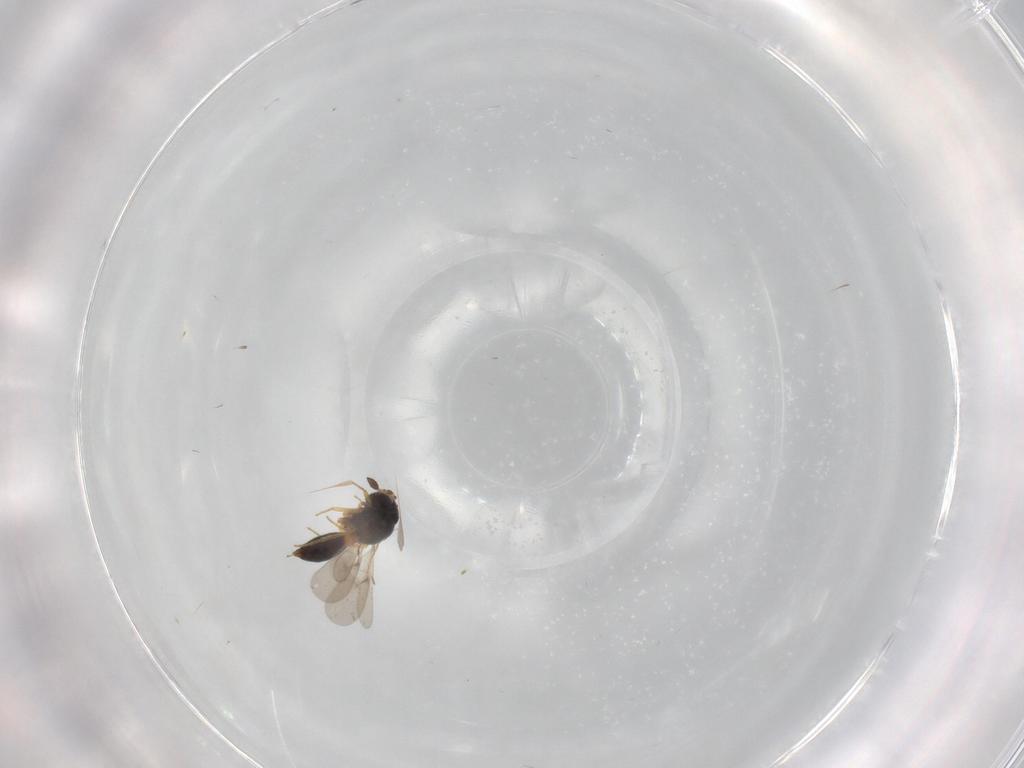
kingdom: Animalia
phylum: Arthropoda
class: Insecta
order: Hymenoptera
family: Scelionidae
